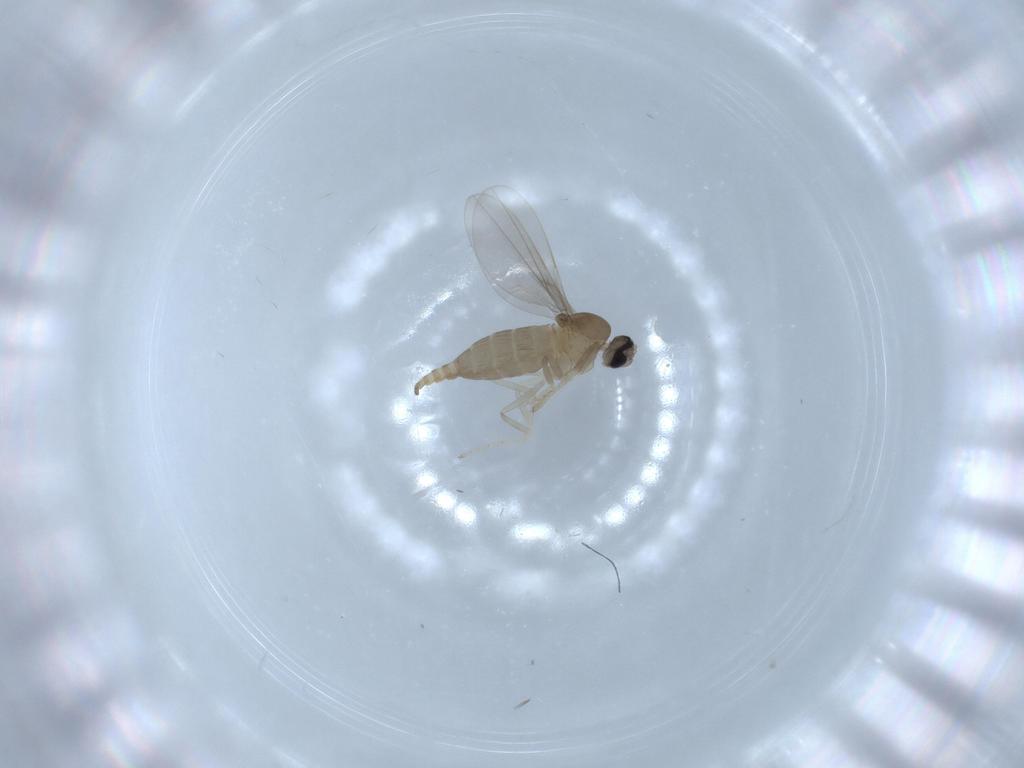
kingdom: Animalia
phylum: Arthropoda
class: Insecta
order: Diptera
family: Cecidomyiidae
